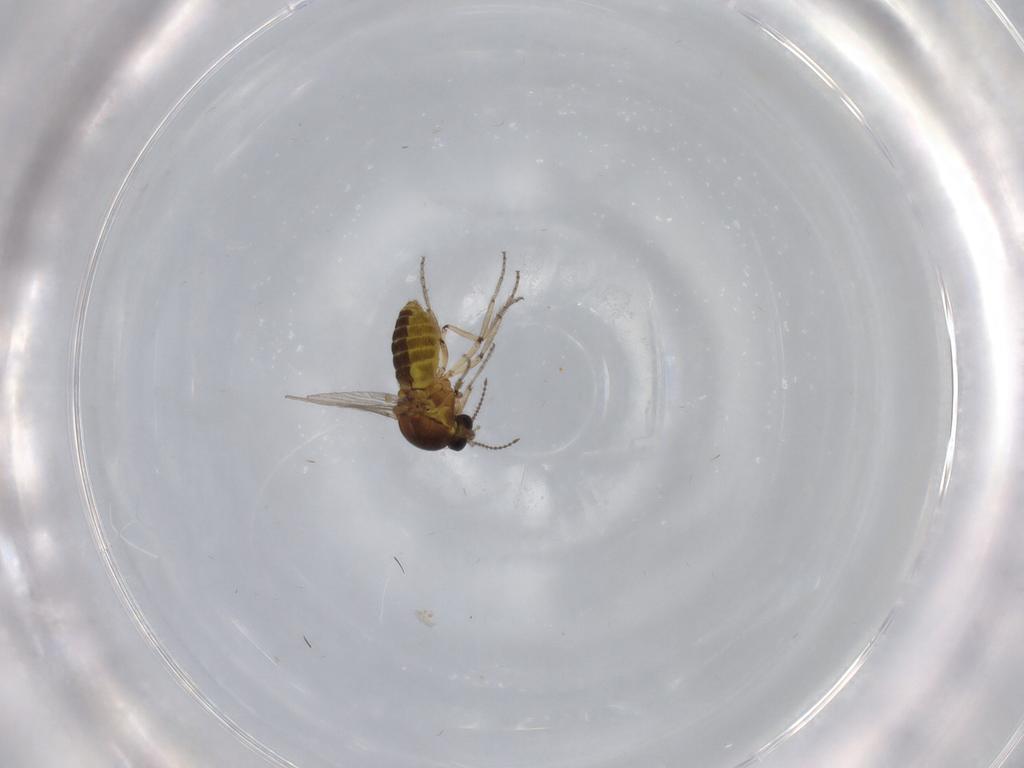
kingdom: Animalia
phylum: Arthropoda
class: Insecta
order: Diptera
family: Ceratopogonidae
